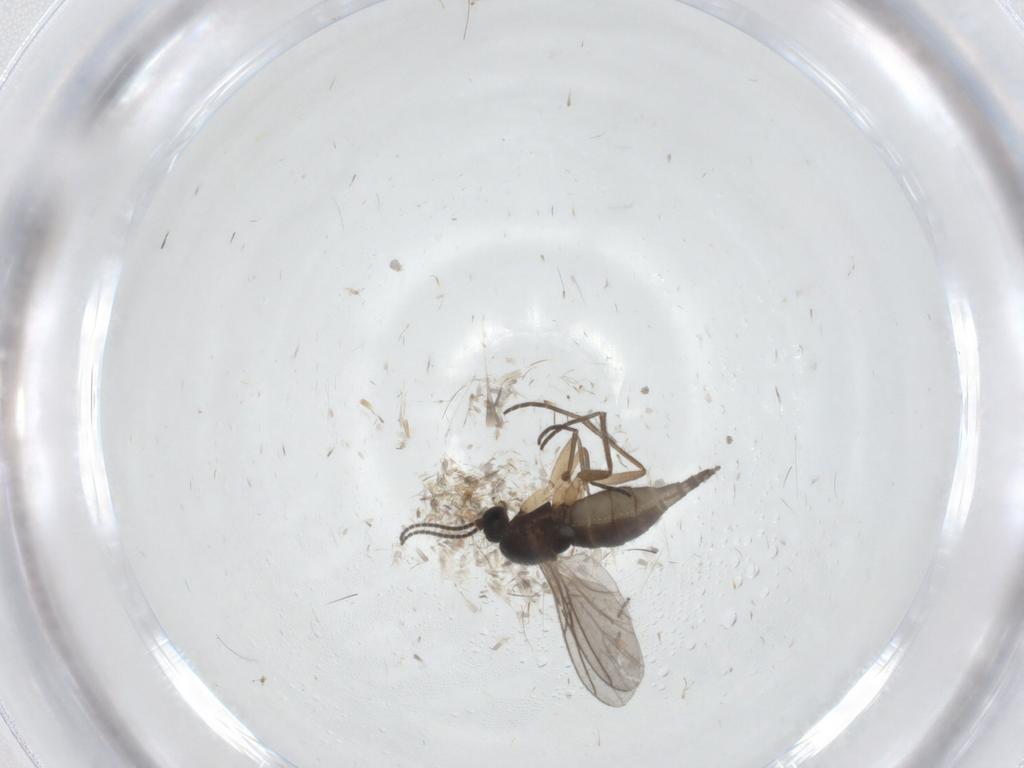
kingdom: Animalia
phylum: Arthropoda
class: Insecta
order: Diptera
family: Sciaridae
